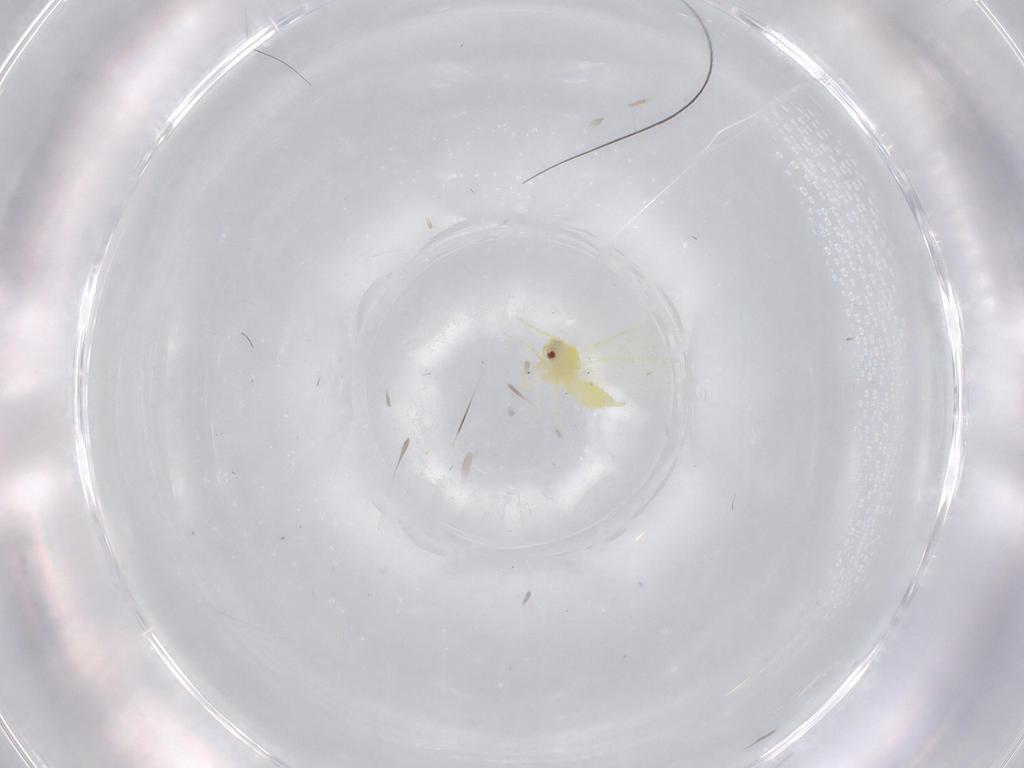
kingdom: Animalia
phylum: Arthropoda
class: Insecta
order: Hemiptera
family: Aleyrodidae
